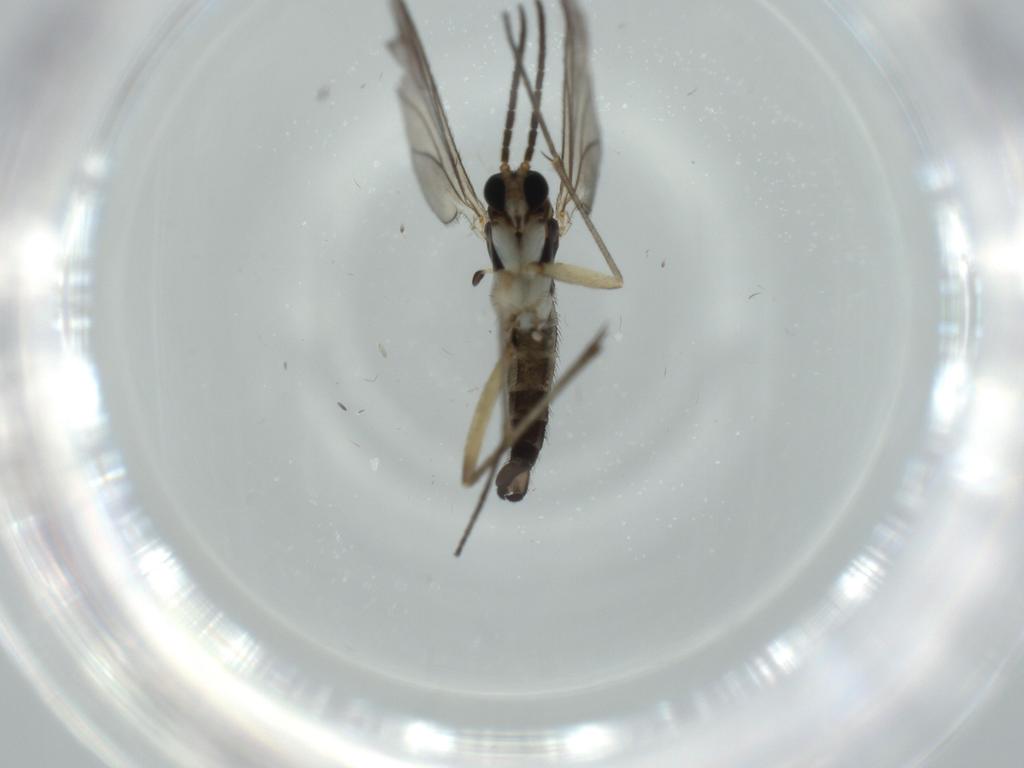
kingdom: Animalia
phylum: Arthropoda
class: Insecta
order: Diptera
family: Sciaridae
